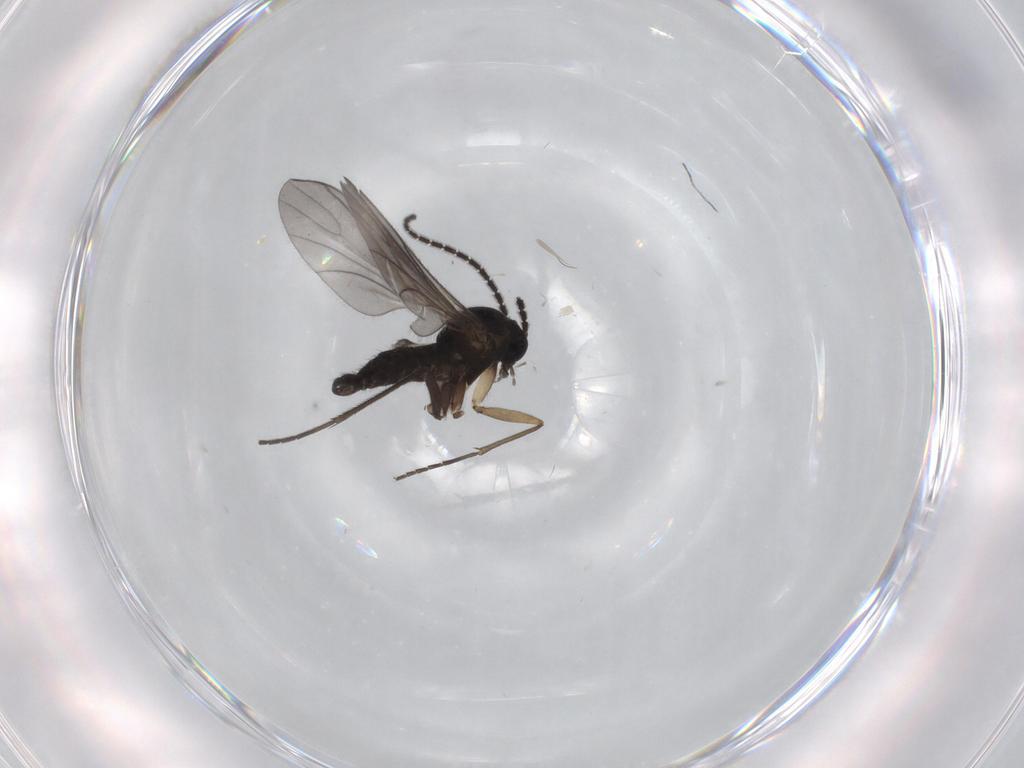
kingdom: Animalia
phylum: Arthropoda
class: Insecta
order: Diptera
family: Sciaridae
